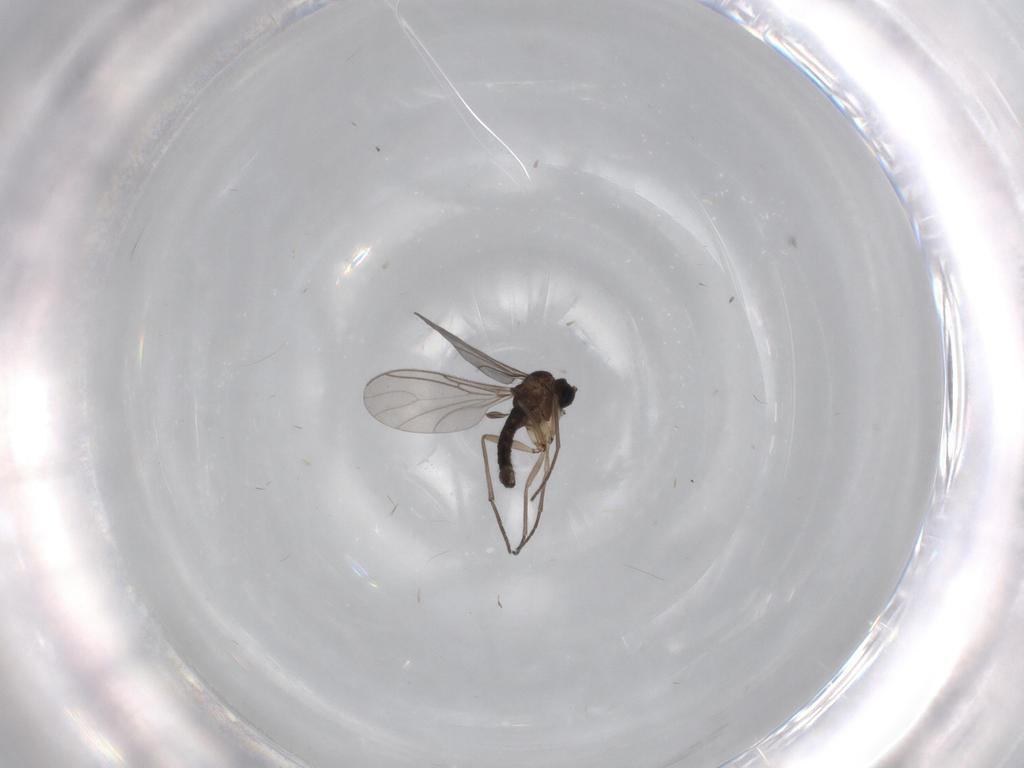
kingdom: Animalia
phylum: Arthropoda
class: Insecta
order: Diptera
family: Sciaridae
